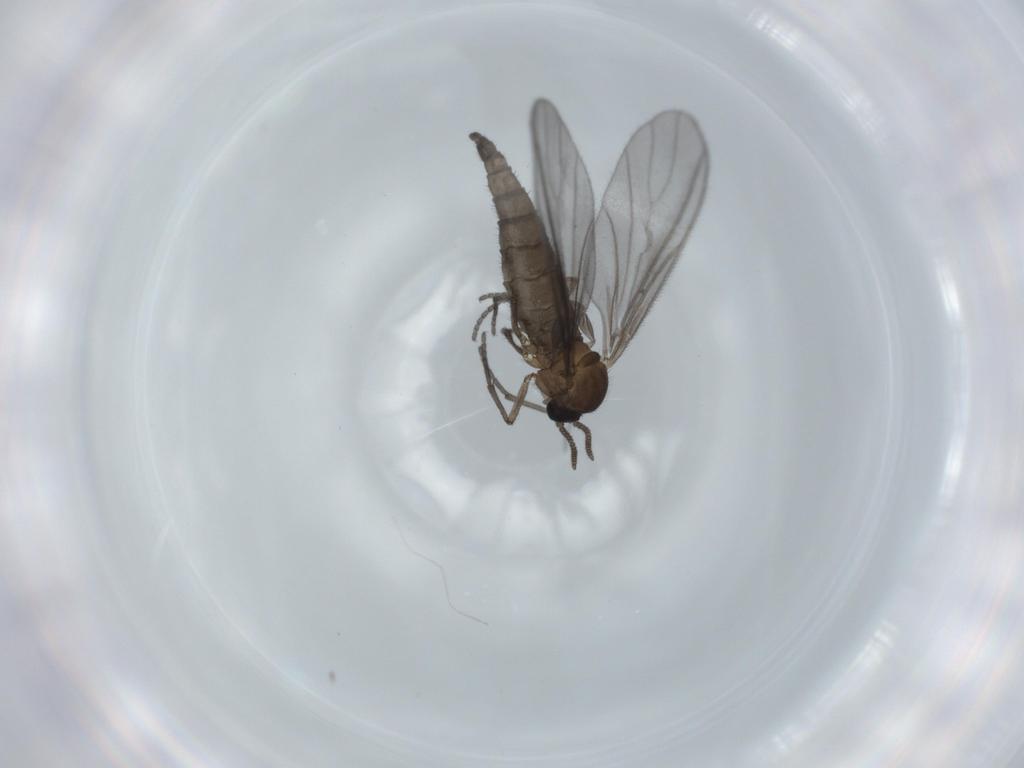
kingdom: Animalia
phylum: Arthropoda
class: Insecta
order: Diptera
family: Sciaridae
